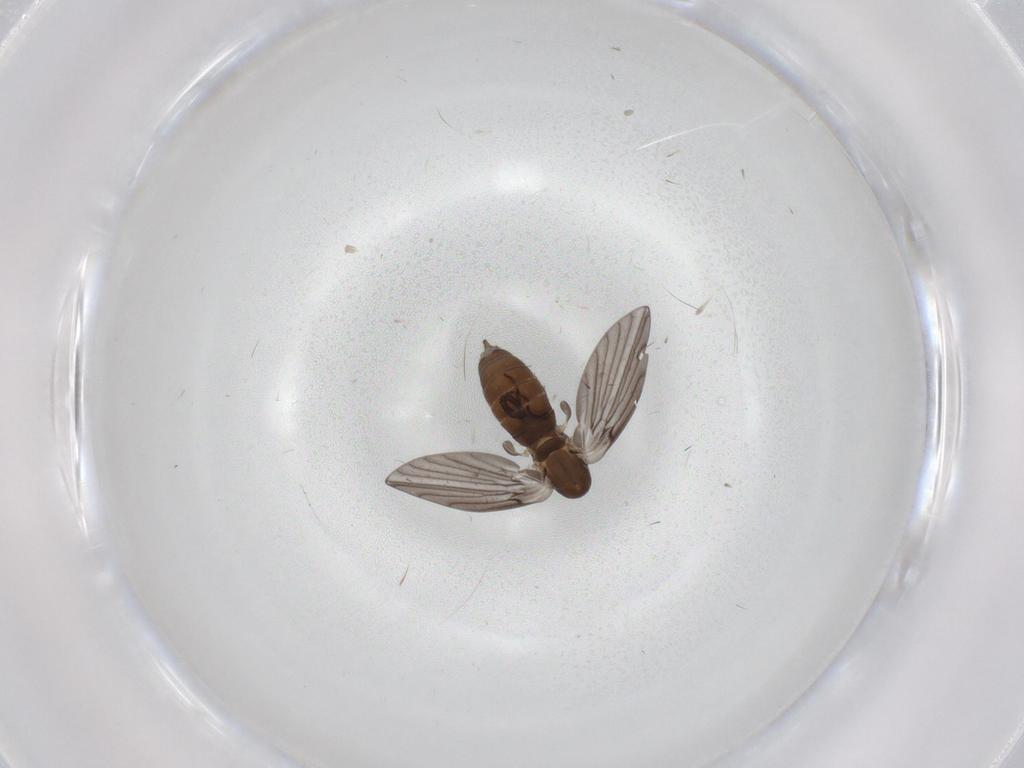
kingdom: Animalia
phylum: Arthropoda
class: Insecta
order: Diptera
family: Psychodidae
